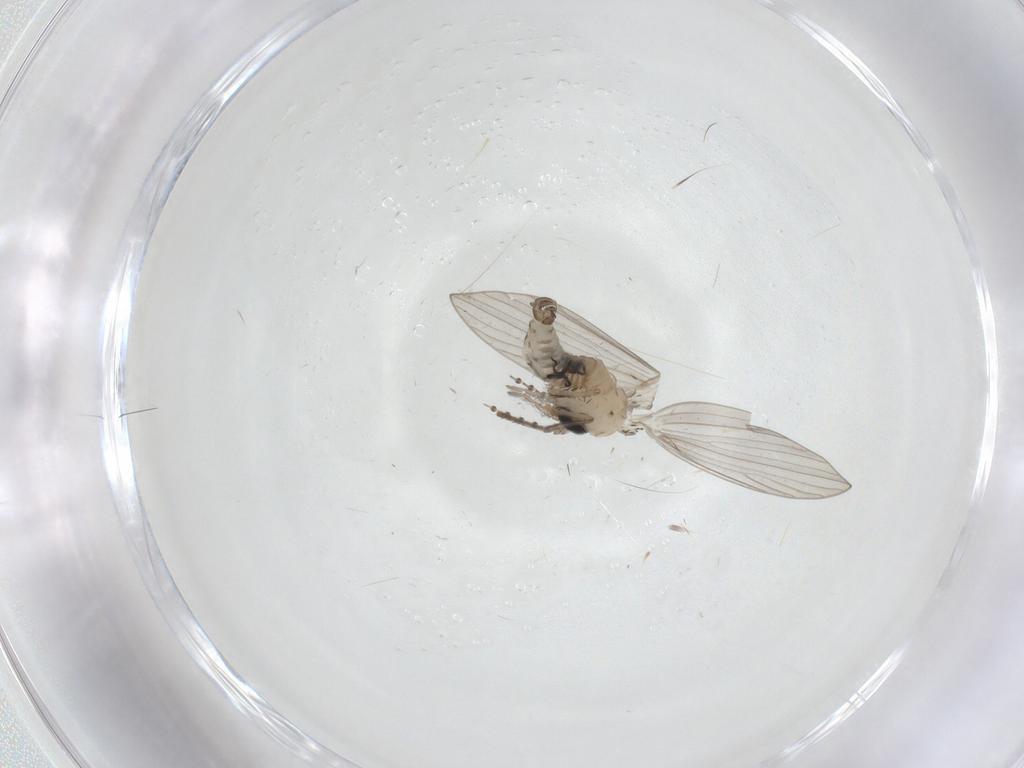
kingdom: Animalia
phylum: Arthropoda
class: Insecta
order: Diptera
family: Psychodidae
